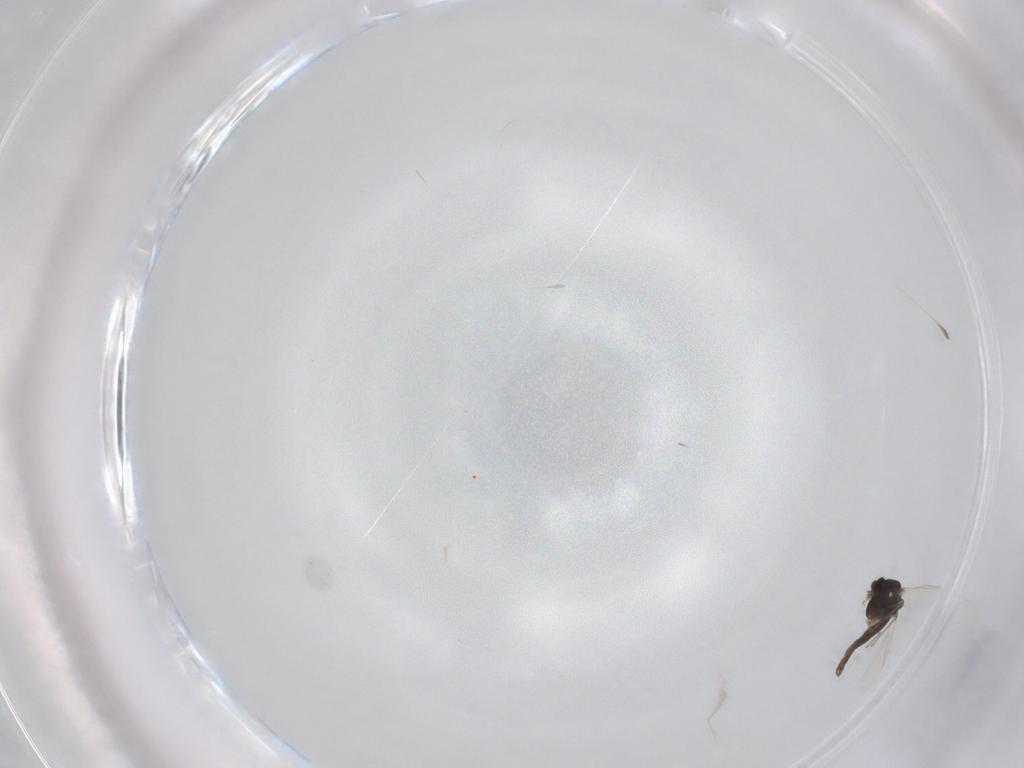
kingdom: Animalia
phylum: Arthropoda
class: Insecta
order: Diptera
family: Chironomidae
